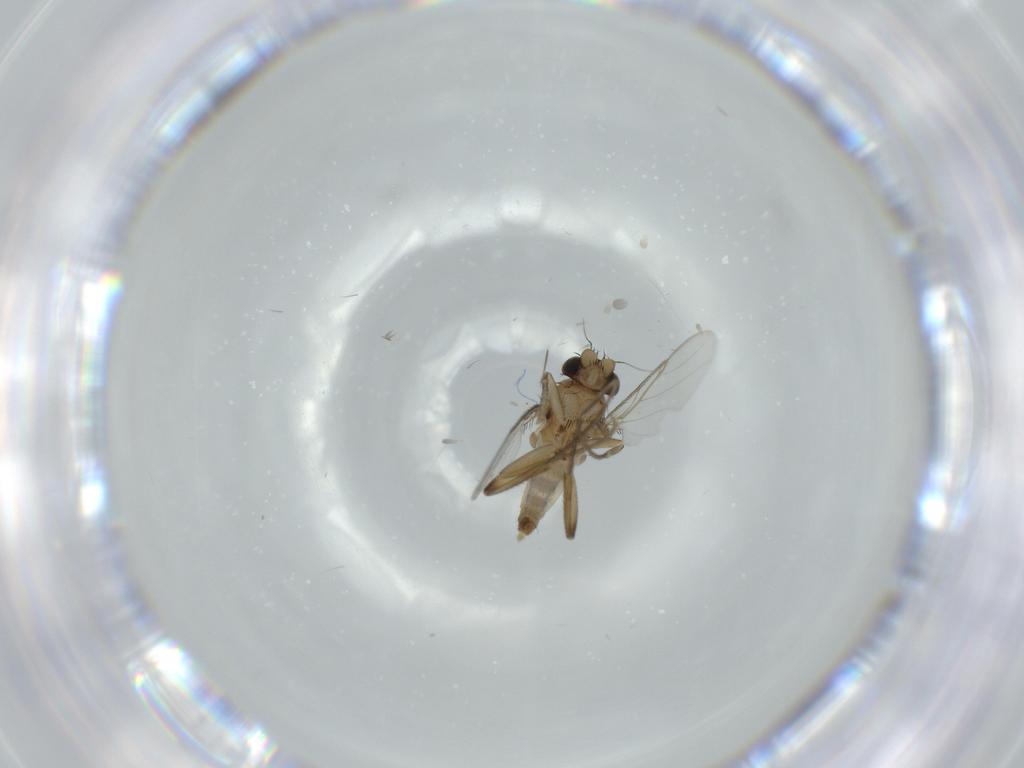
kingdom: Animalia
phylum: Arthropoda
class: Insecta
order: Diptera
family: Phoridae
